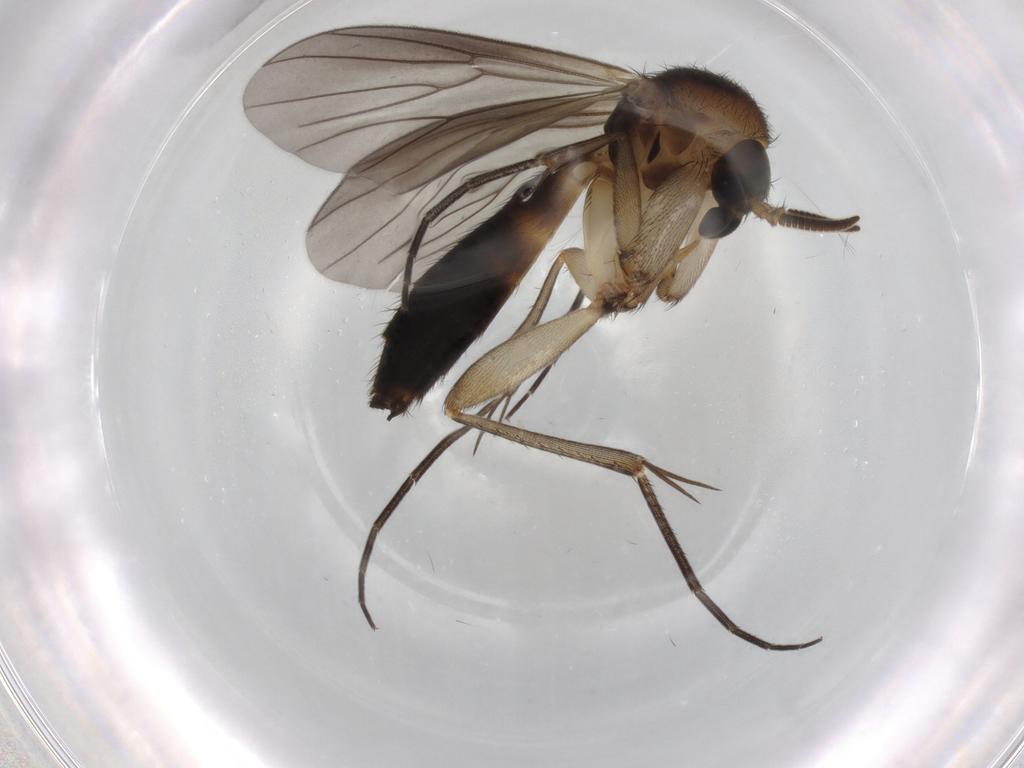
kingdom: Animalia
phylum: Arthropoda
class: Insecta
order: Diptera
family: Mycetophilidae
